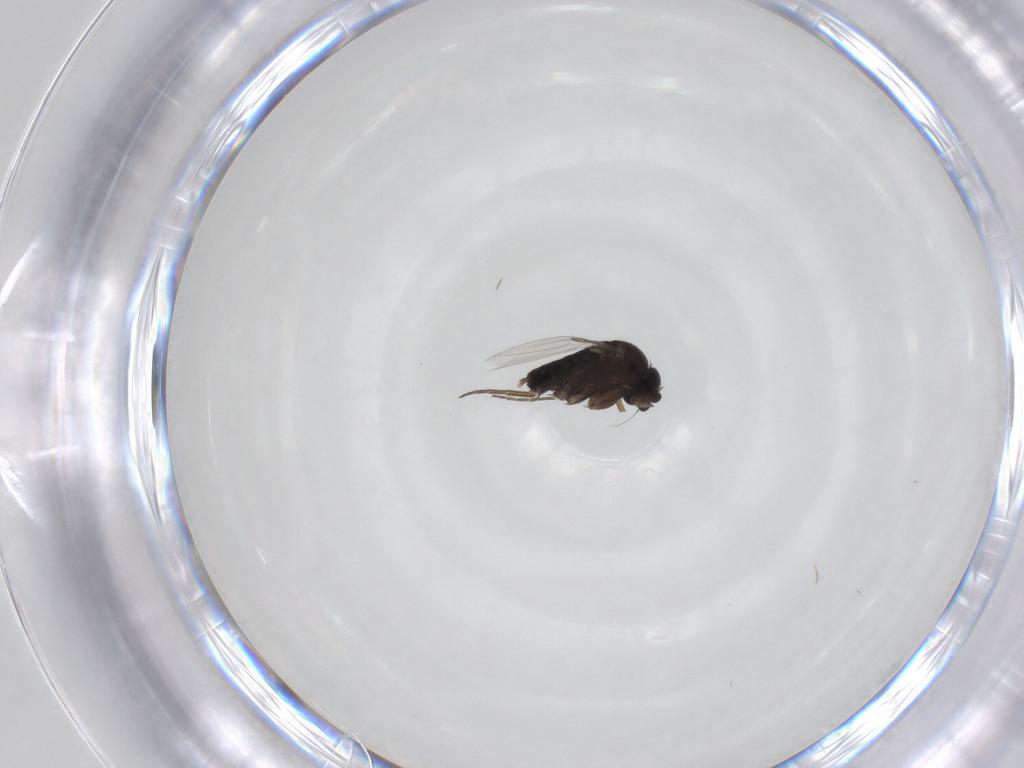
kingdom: Animalia
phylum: Arthropoda
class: Insecta
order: Diptera
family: Phoridae
